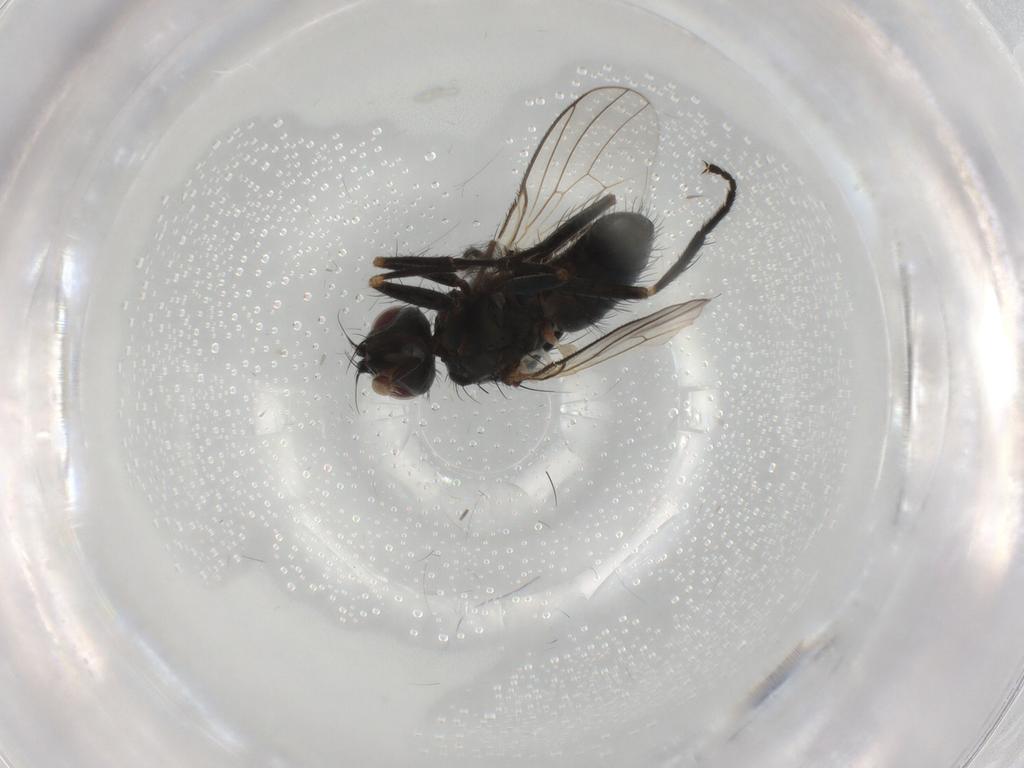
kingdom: Animalia
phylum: Arthropoda
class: Insecta
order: Diptera
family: Muscidae
